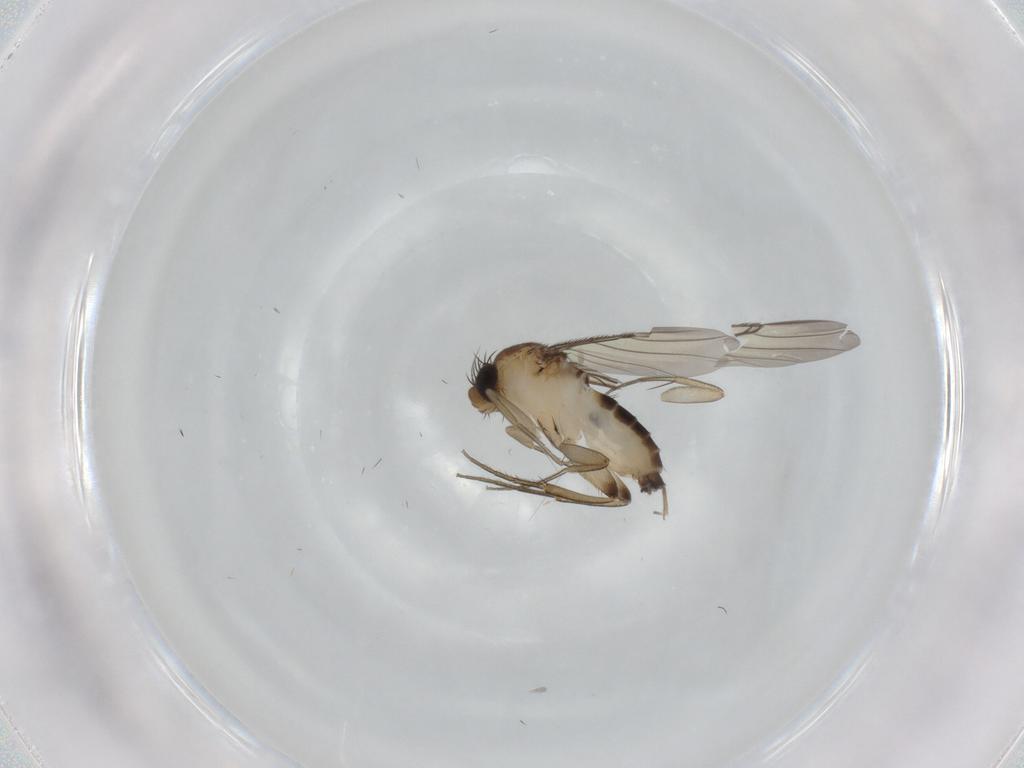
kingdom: Animalia
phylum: Arthropoda
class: Insecta
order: Diptera
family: Phoridae
